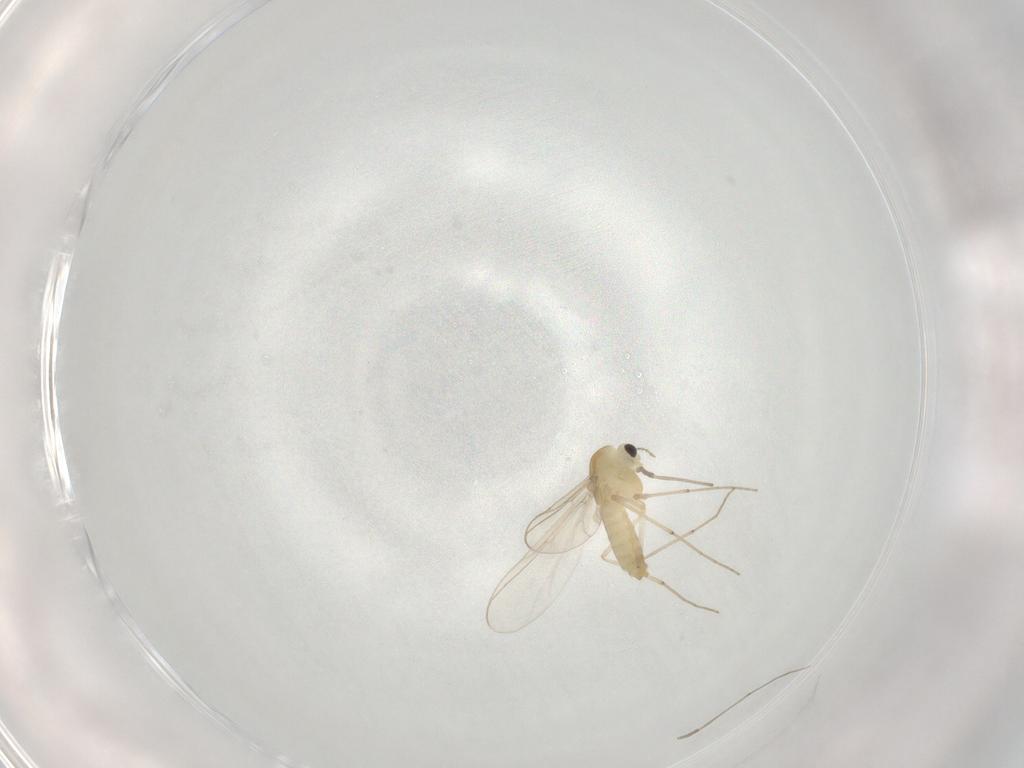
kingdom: Animalia
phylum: Arthropoda
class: Insecta
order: Diptera
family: Chironomidae
